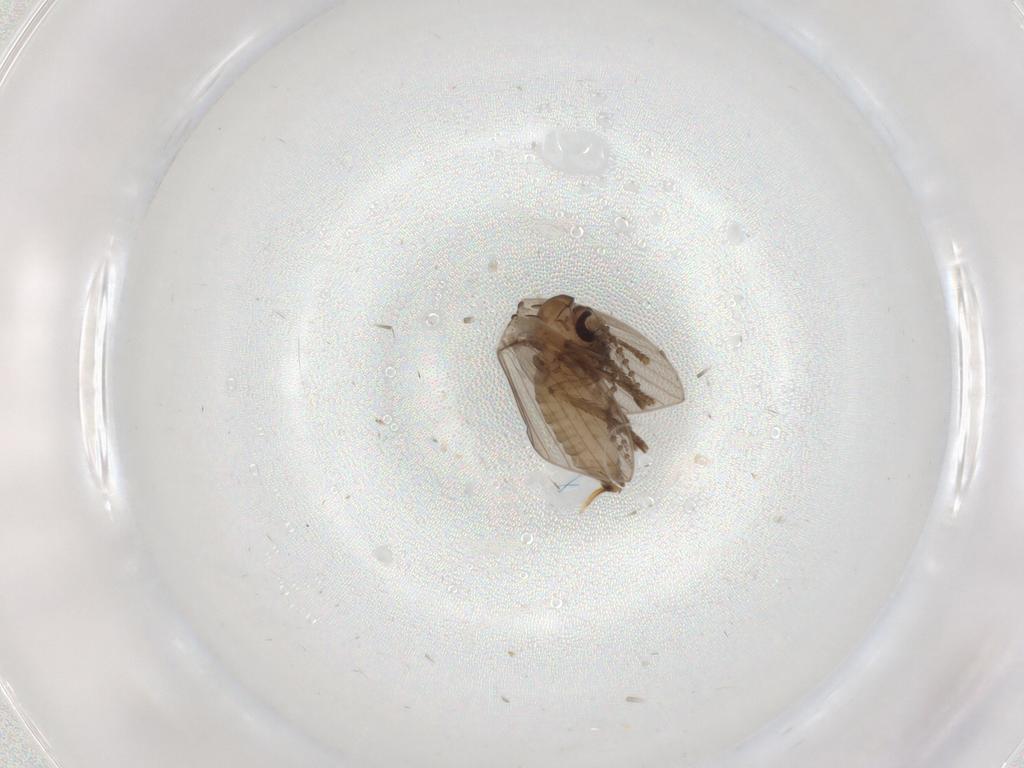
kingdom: Animalia
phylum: Arthropoda
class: Insecta
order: Diptera
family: Psychodidae
